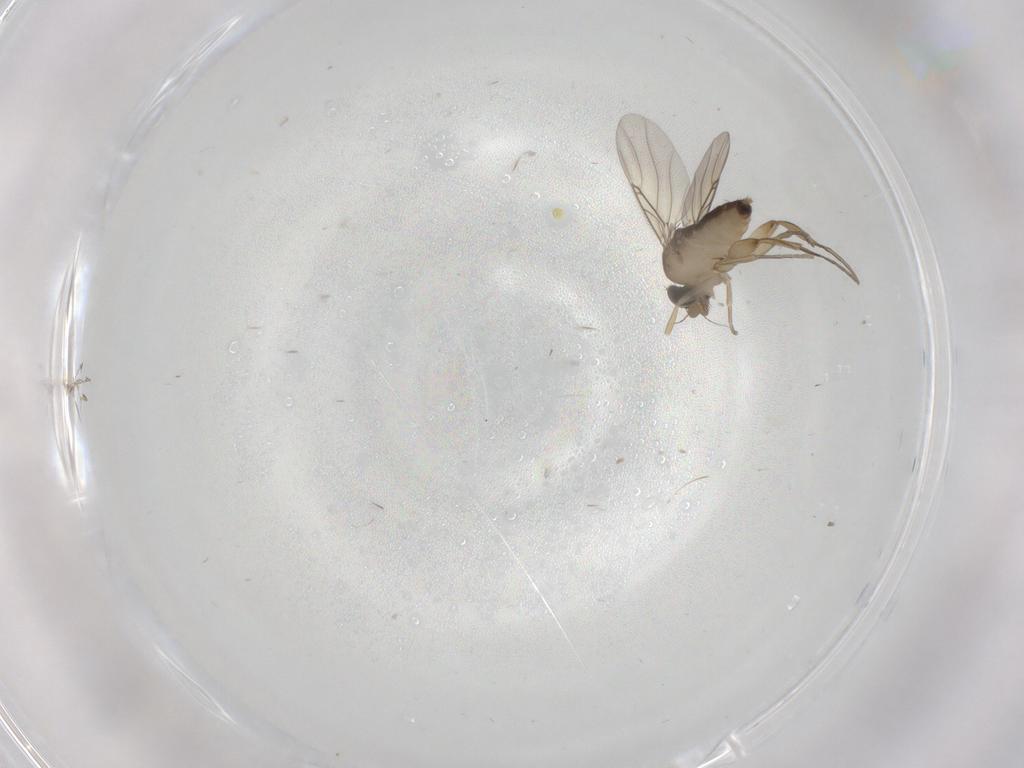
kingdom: Animalia
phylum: Arthropoda
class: Insecta
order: Diptera
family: Phoridae
